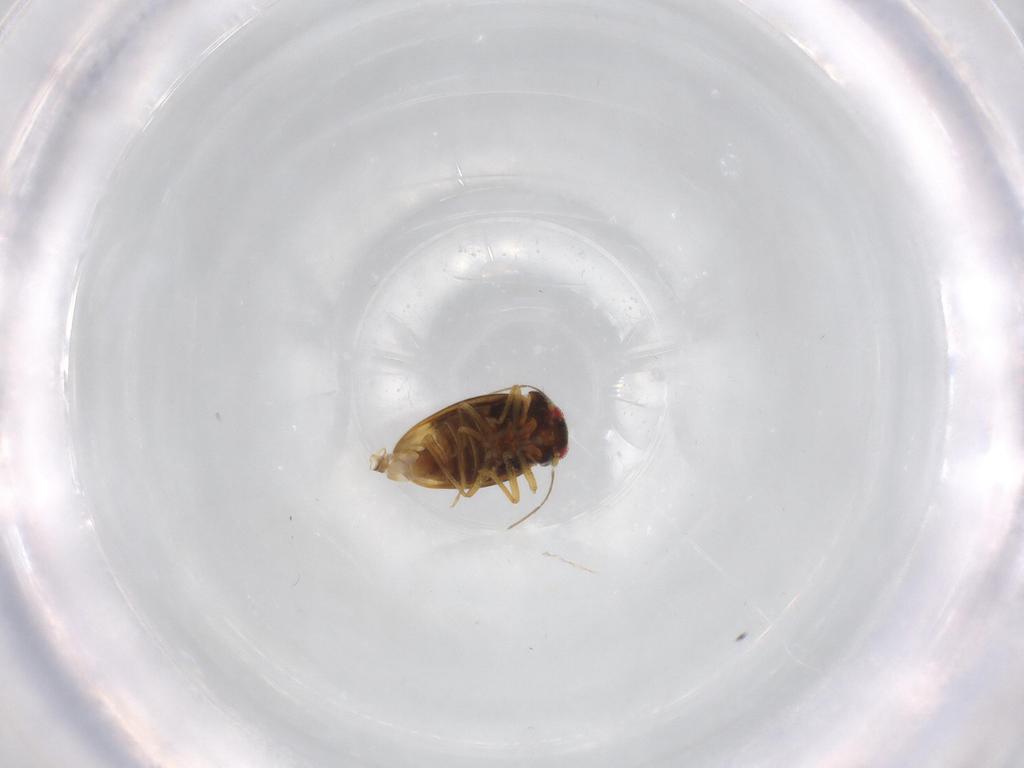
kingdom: Animalia
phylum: Arthropoda
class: Insecta
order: Hemiptera
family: Schizopteridae
